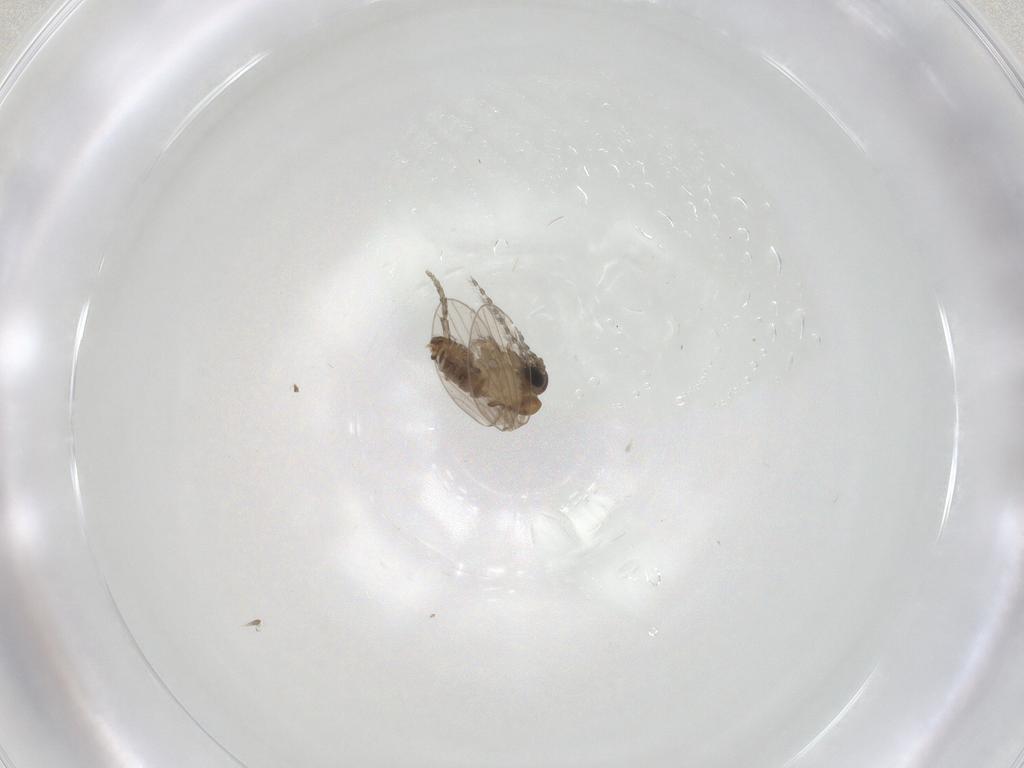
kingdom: Animalia
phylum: Arthropoda
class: Insecta
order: Diptera
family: Psychodidae
